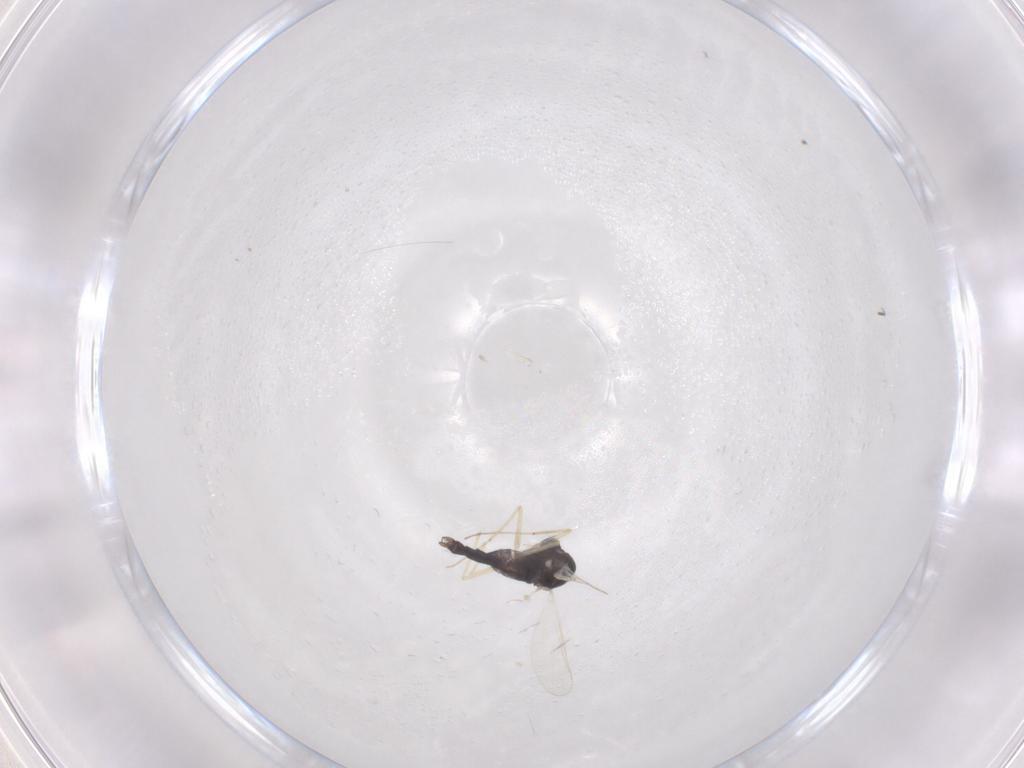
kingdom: Animalia
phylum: Arthropoda
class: Insecta
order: Diptera
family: Chironomidae
